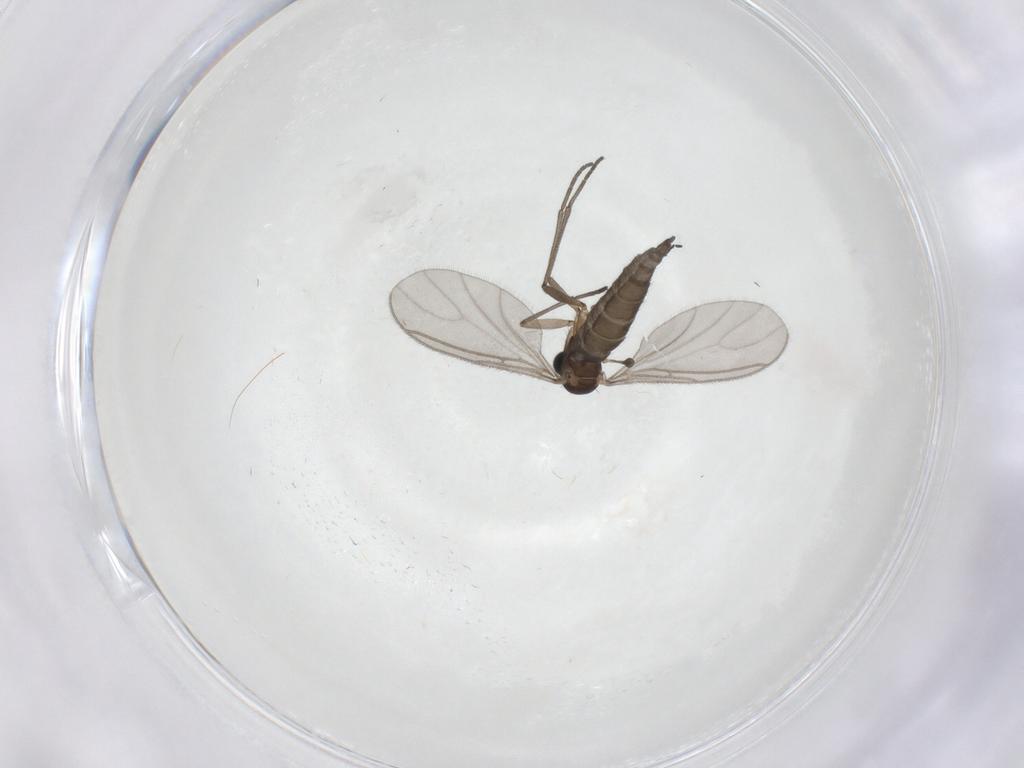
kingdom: Animalia
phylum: Arthropoda
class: Insecta
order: Diptera
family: Sciaridae
